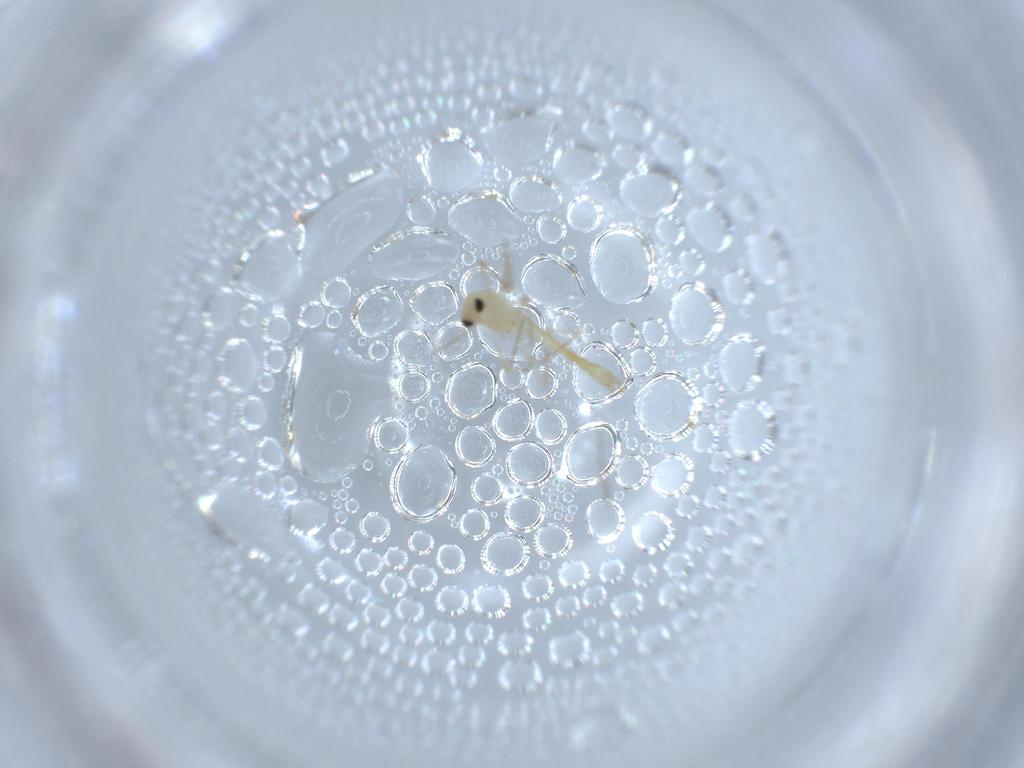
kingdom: Animalia
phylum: Arthropoda
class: Insecta
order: Diptera
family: Chironomidae
